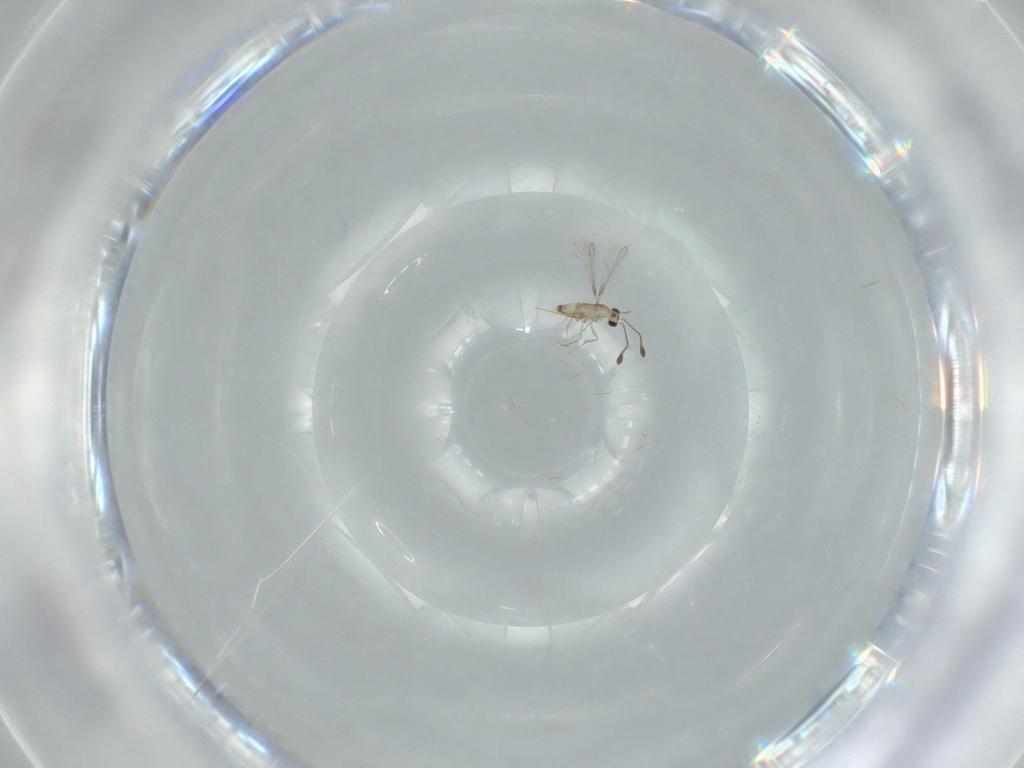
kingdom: Animalia
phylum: Arthropoda
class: Insecta
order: Hymenoptera
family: Mymaridae
